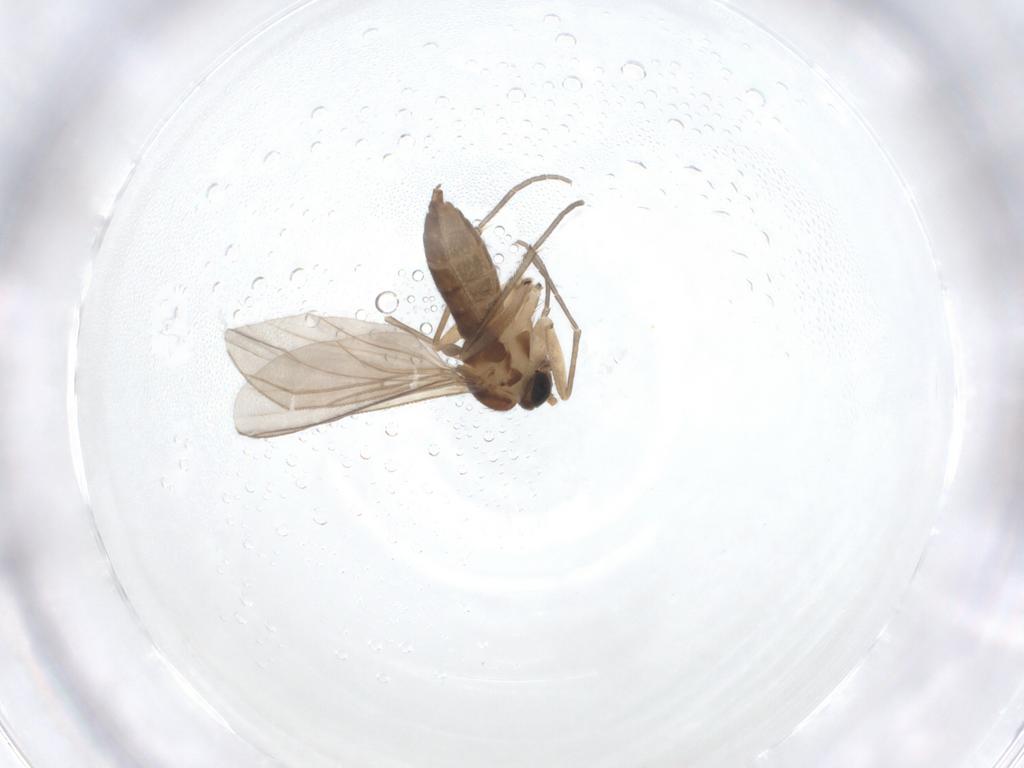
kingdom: Animalia
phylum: Arthropoda
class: Insecta
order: Diptera
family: Sciaridae
